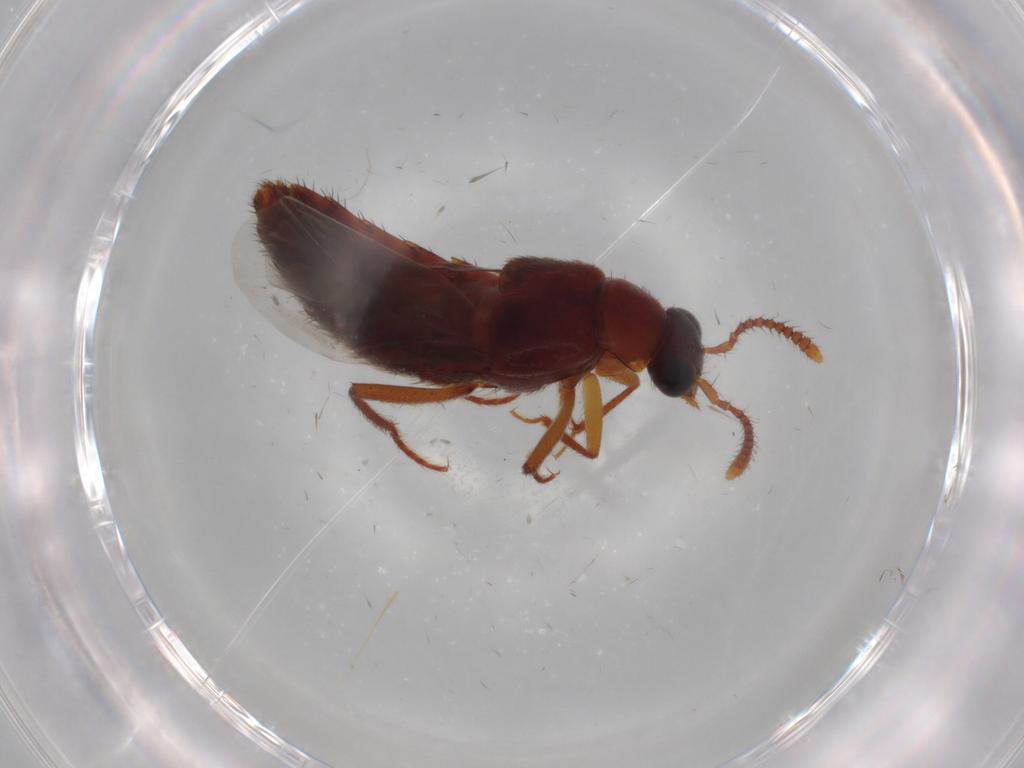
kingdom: Animalia
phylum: Arthropoda
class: Insecta
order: Coleoptera
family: Staphylinidae
